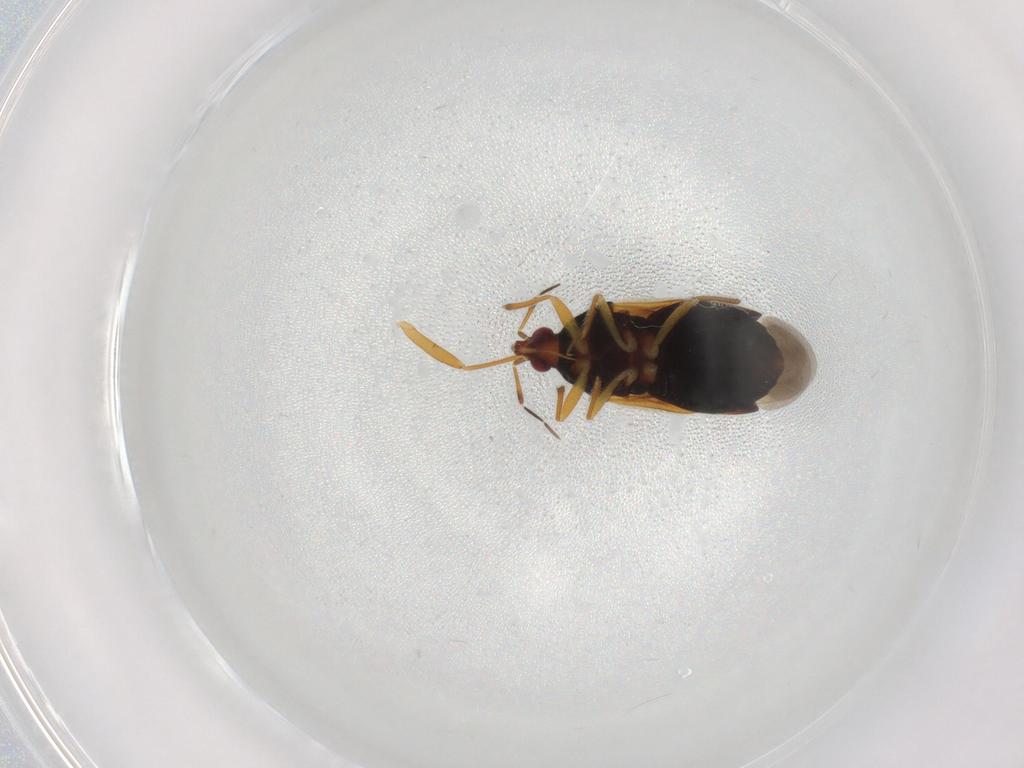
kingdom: Animalia
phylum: Arthropoda
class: Insecta
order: Hemiptera
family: Anthocoridae
